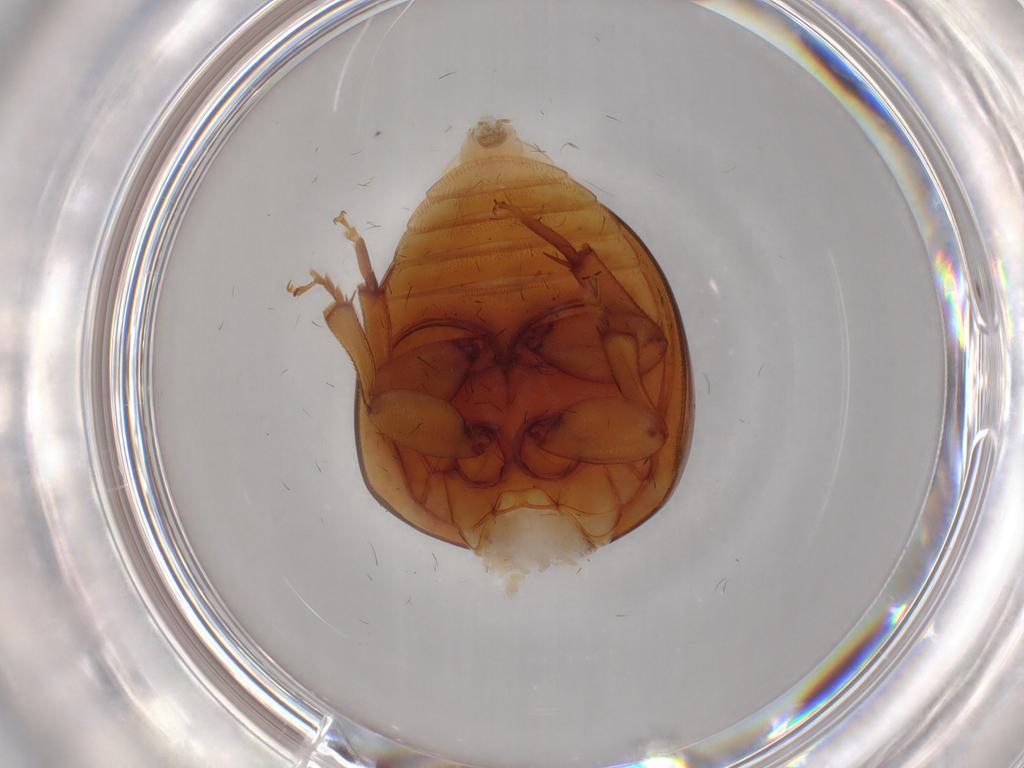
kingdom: Animalia
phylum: Arthropoda
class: Insecta
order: Coleoptera
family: Phalacridae
